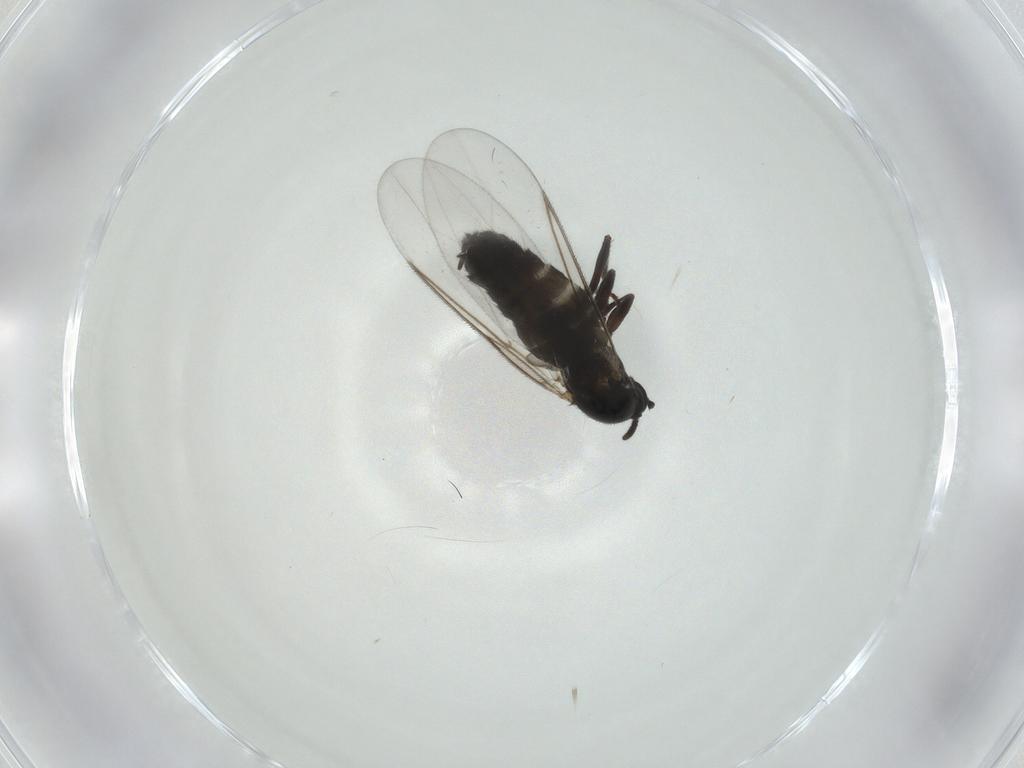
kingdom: Animalia
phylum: Arthropoda
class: Insecta
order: Diptera
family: Scatopsidae
